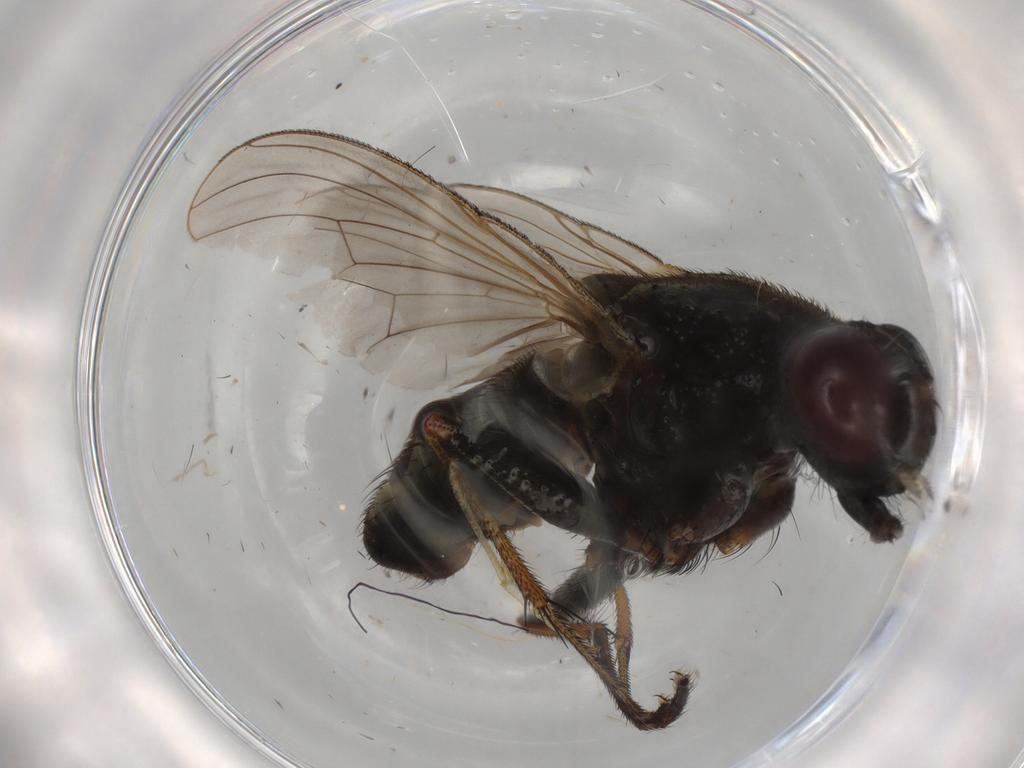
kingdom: Animalia
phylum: Arthropoda
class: Insecta
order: Diptera
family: Muscidae
